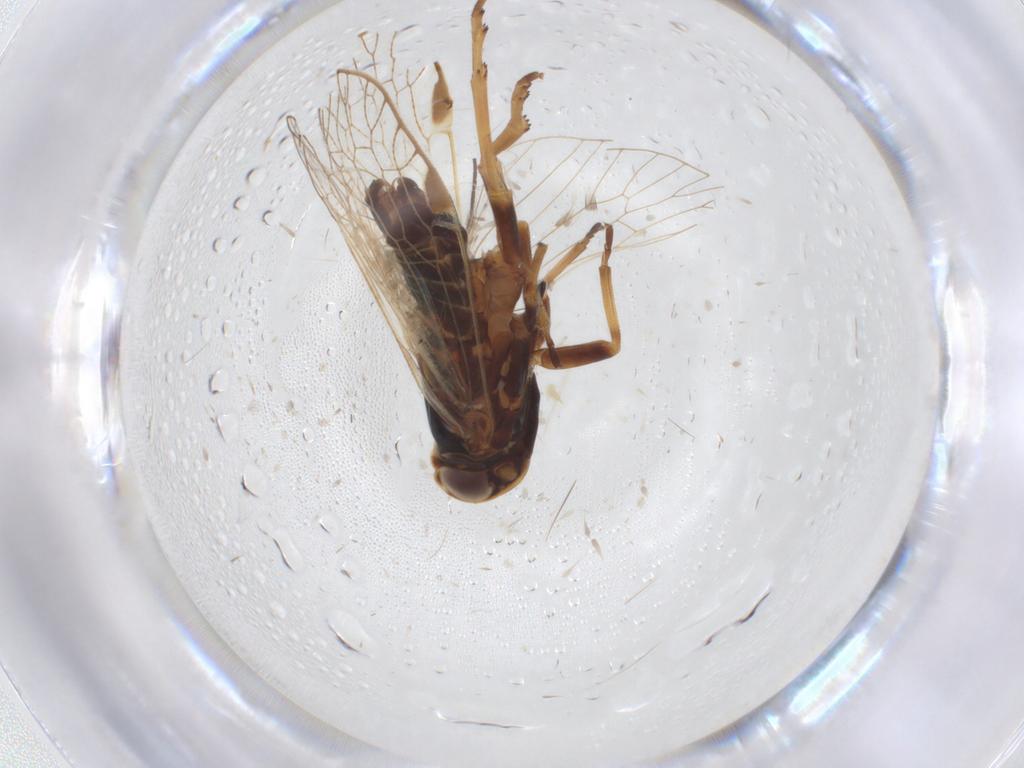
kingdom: Animalia
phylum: Arthropoda
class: Insecta
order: Hemiptera
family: Cixiidae
